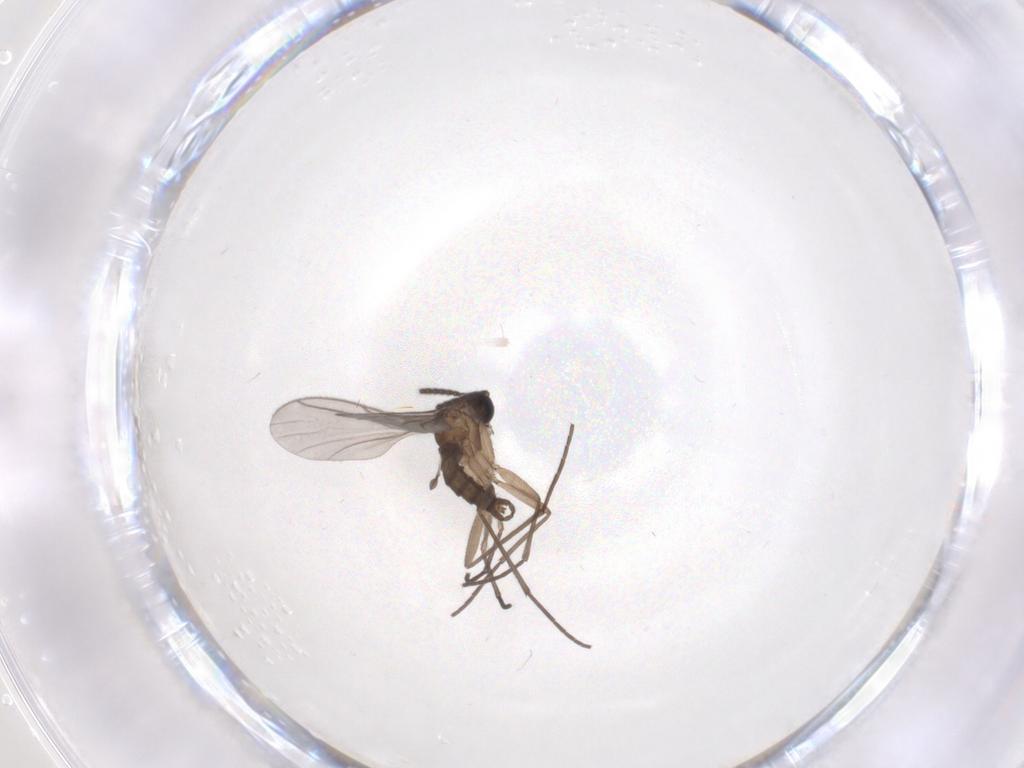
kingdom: Animalia
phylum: Arthropoda
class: Insecta
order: Diptera
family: Sciaridae
